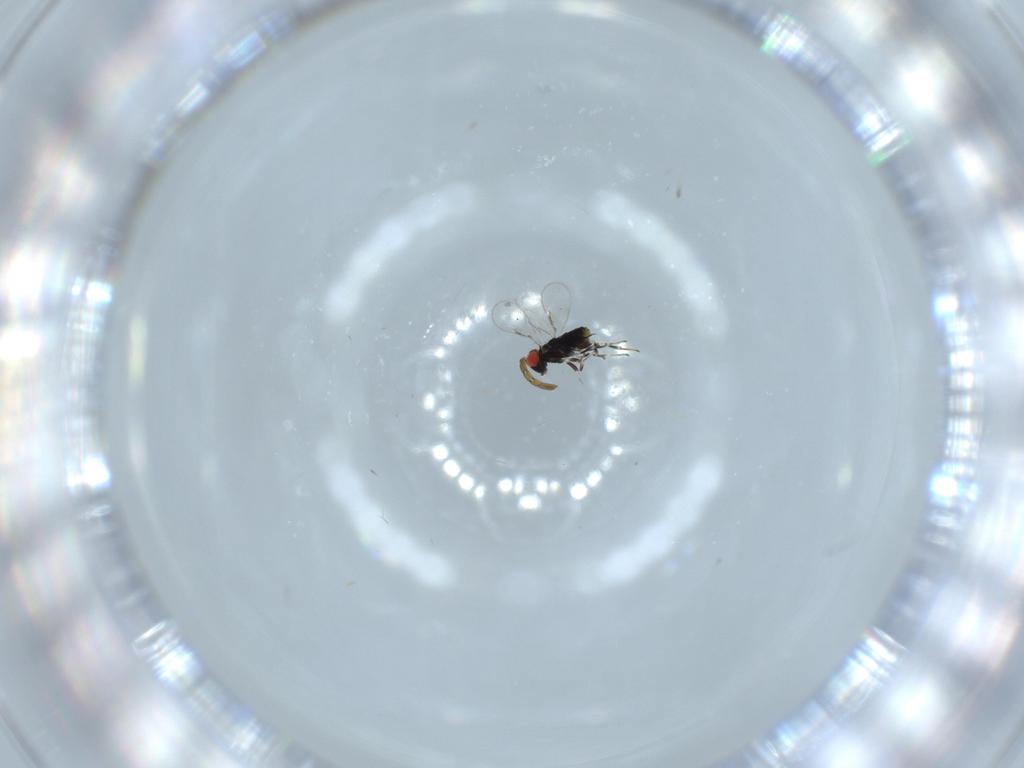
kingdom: Animalia
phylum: Arthropoda
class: Insecta
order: Hymenoptera
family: Azotidae
